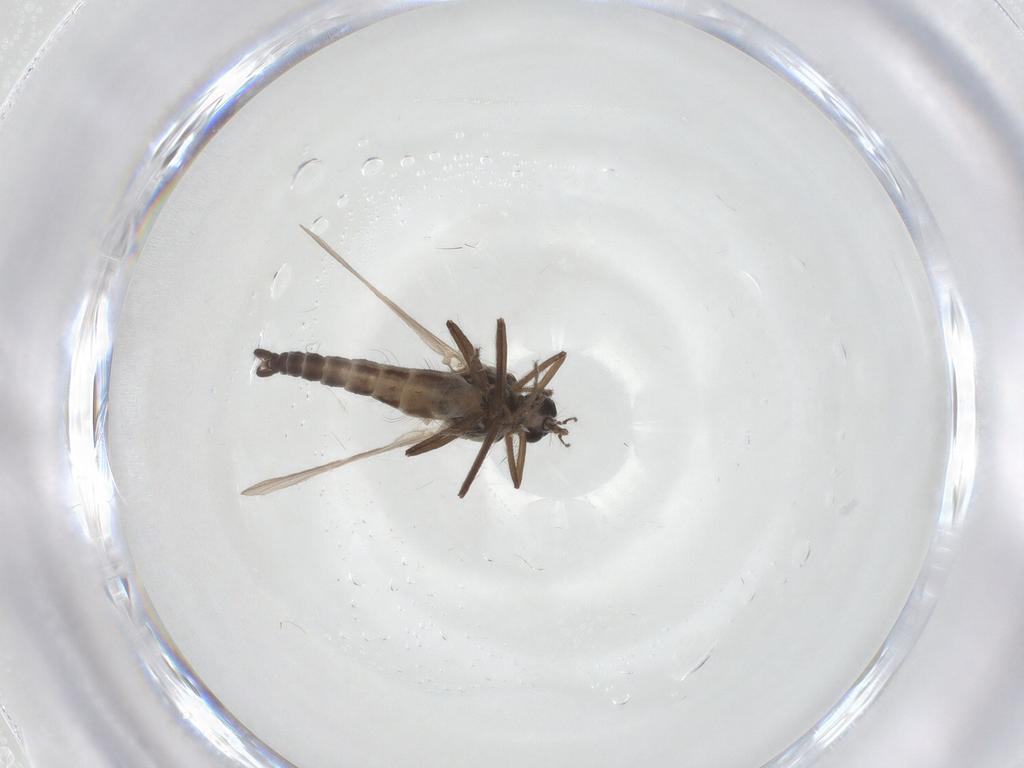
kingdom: Animalia
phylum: Arthropoda
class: Insecta
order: Diptera
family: Ceratopogonidae
